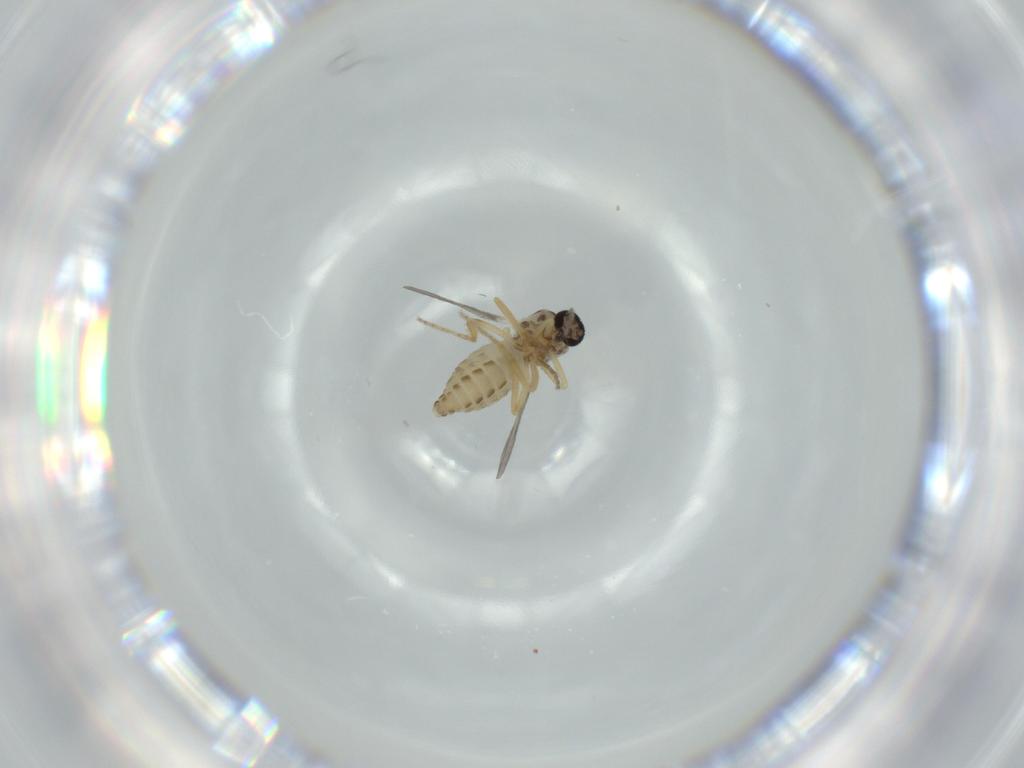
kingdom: Animalia
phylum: Arthropoda
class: Insecta
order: Diptera
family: Ceratopogonidae
